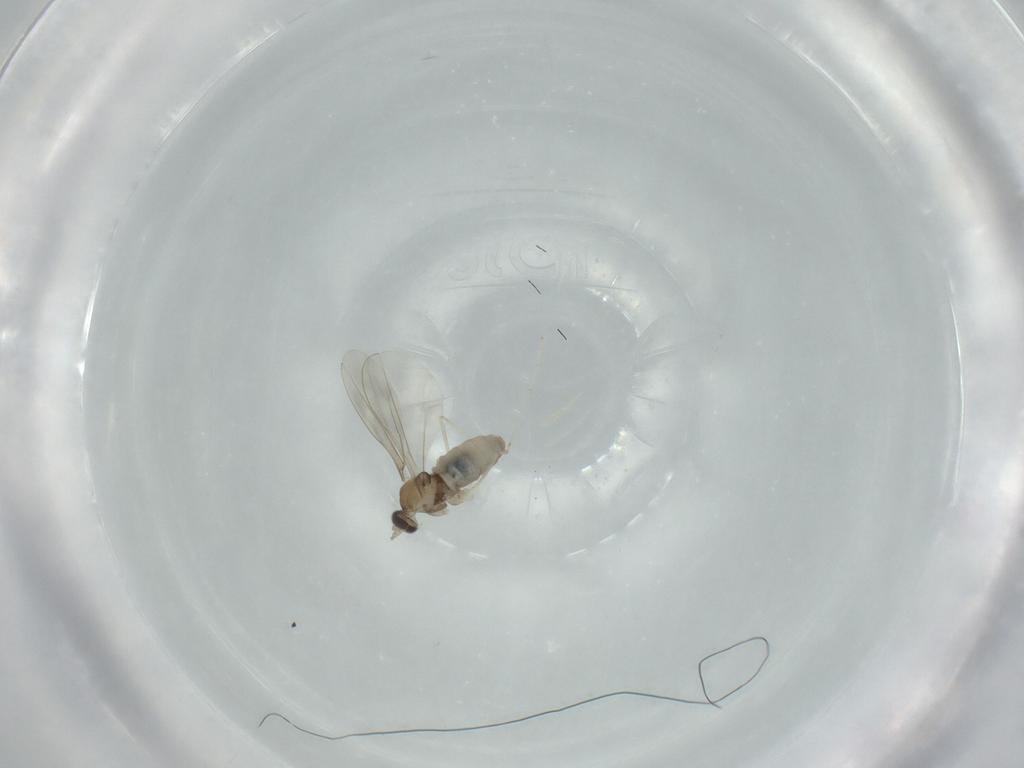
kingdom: Animalia
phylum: Arthropoda
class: Insecta
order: Diptera
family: Cecidomyiidae
